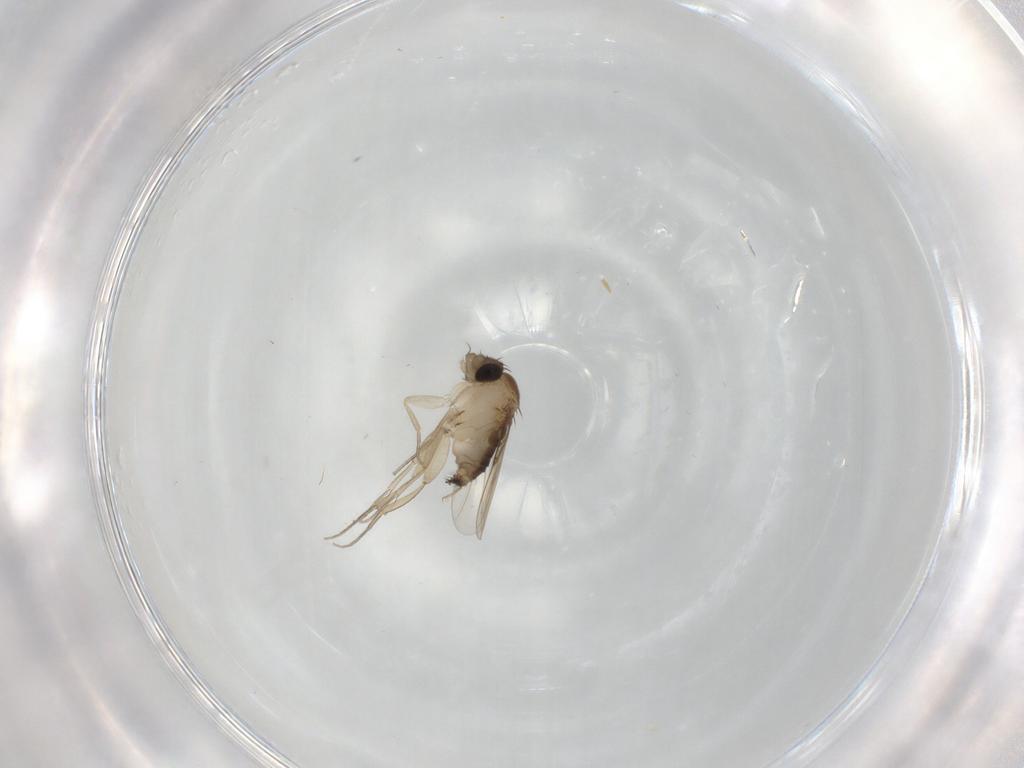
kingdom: Animalia
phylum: Arthropoda
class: Insecta
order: Diptera
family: Phoridae
